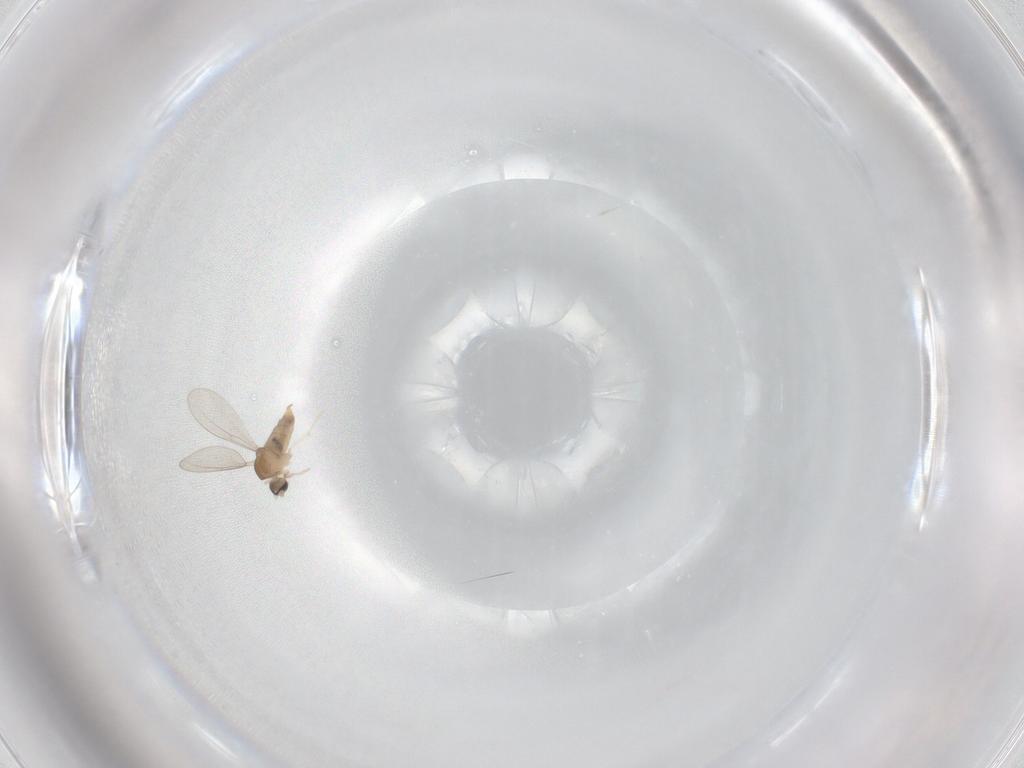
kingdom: Animalia
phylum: Arthropoda
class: Insecta
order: Diptera
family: Cecidomyiidae
